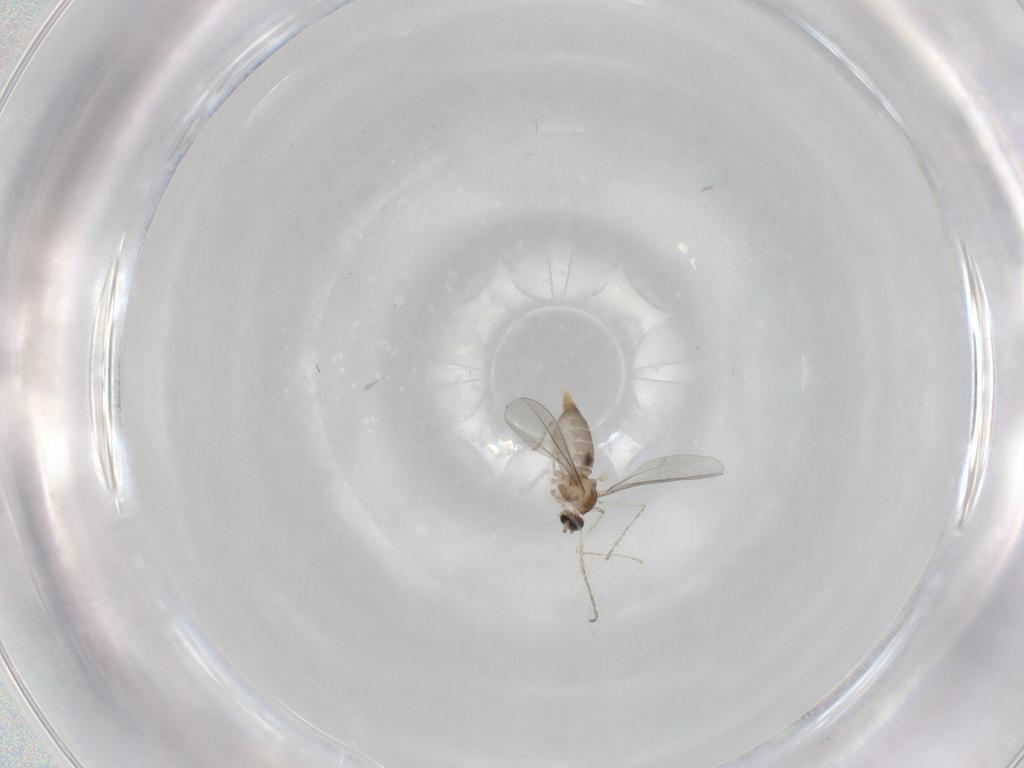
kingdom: Animalia
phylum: Arthropoda
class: Insecta
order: Diptera
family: Cecidomyiidae
